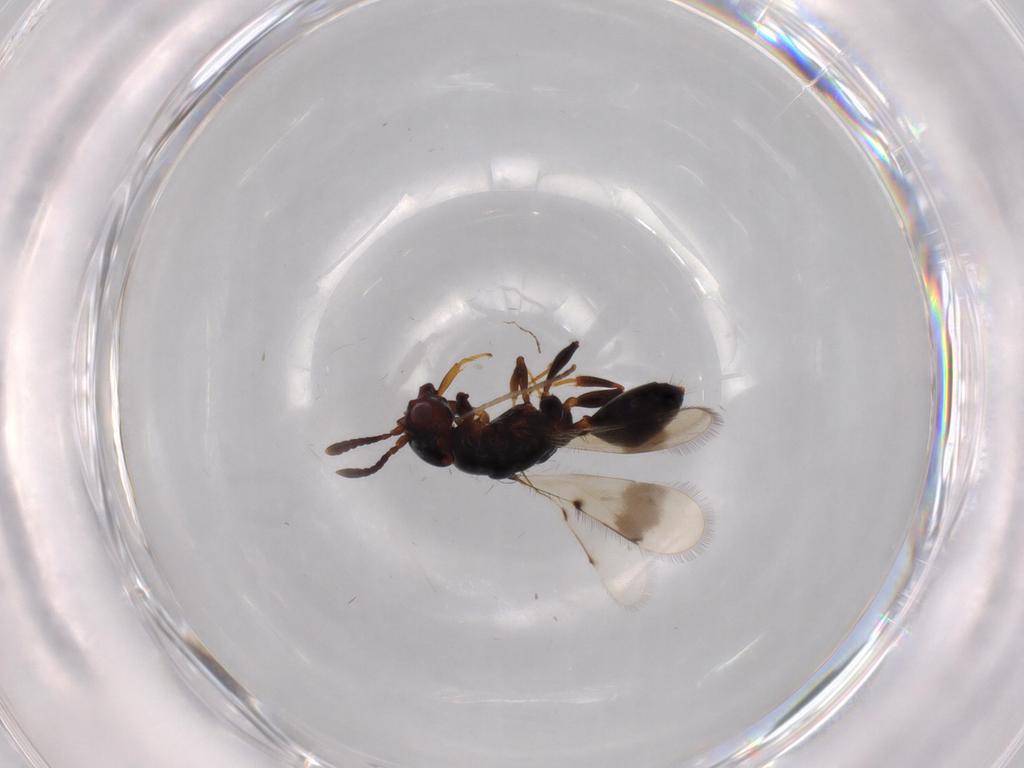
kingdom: Animalia
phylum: Arthropoda
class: Insecta
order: Hymenoptera
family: Cerocephalidae
